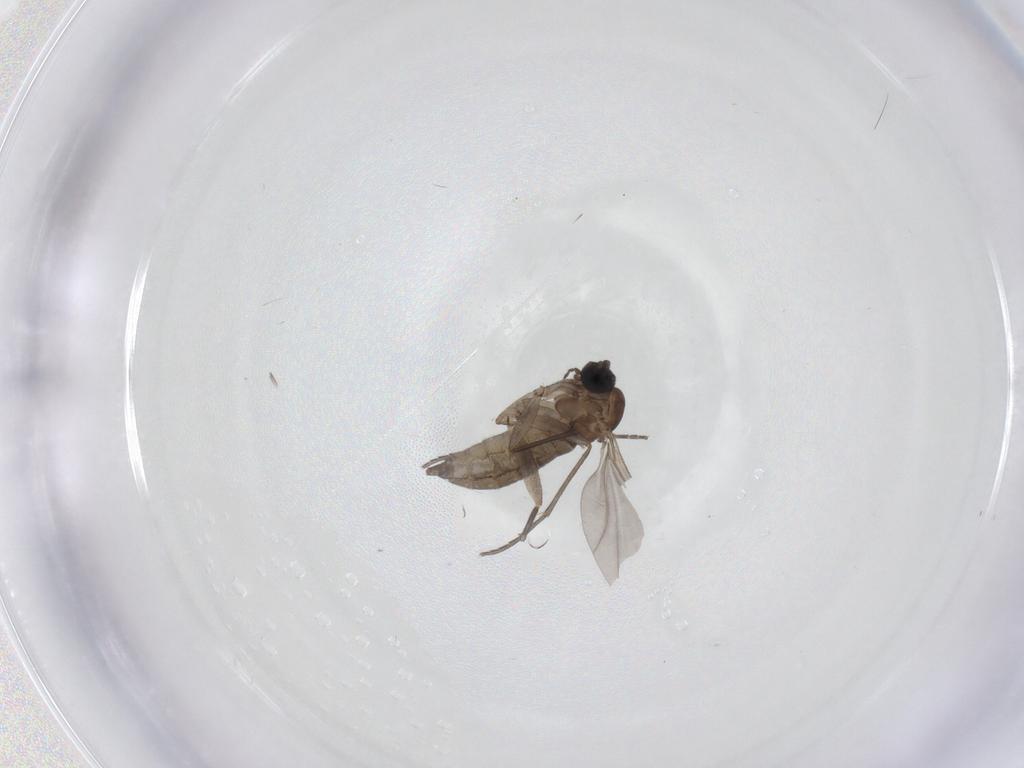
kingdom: Animalia
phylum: Arthropoda
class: Insecta
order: Diptera
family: Sciaridae
